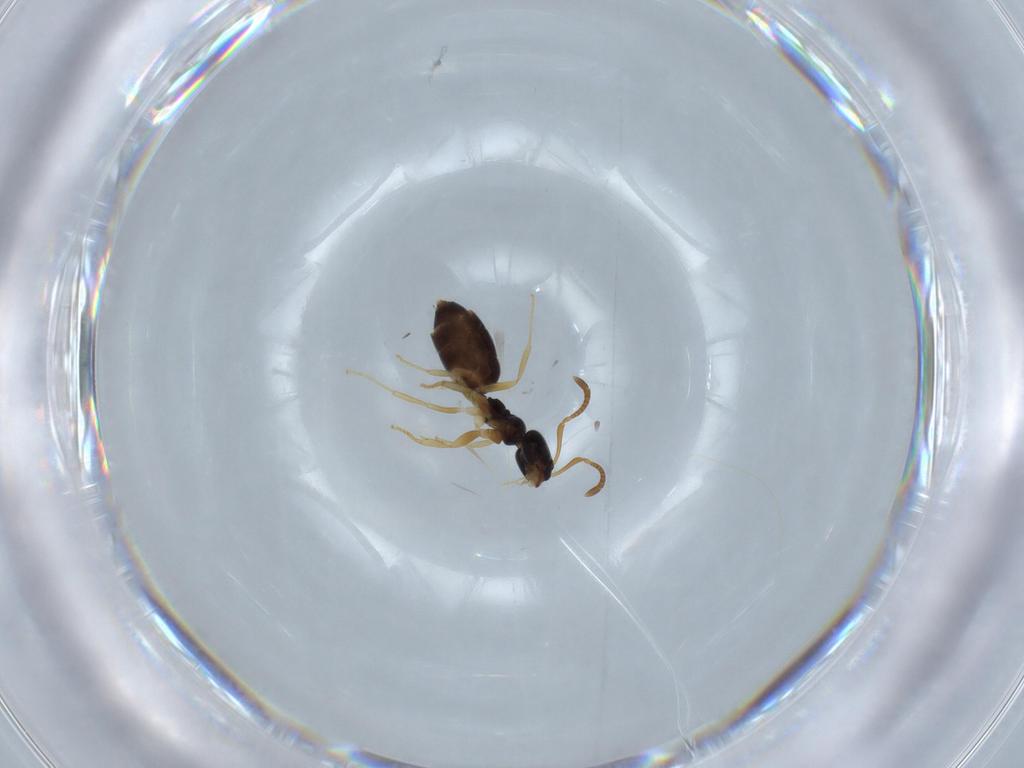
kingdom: Animalia
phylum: Arthropoda
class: Insecta
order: Hymenoptera
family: Formicidae
